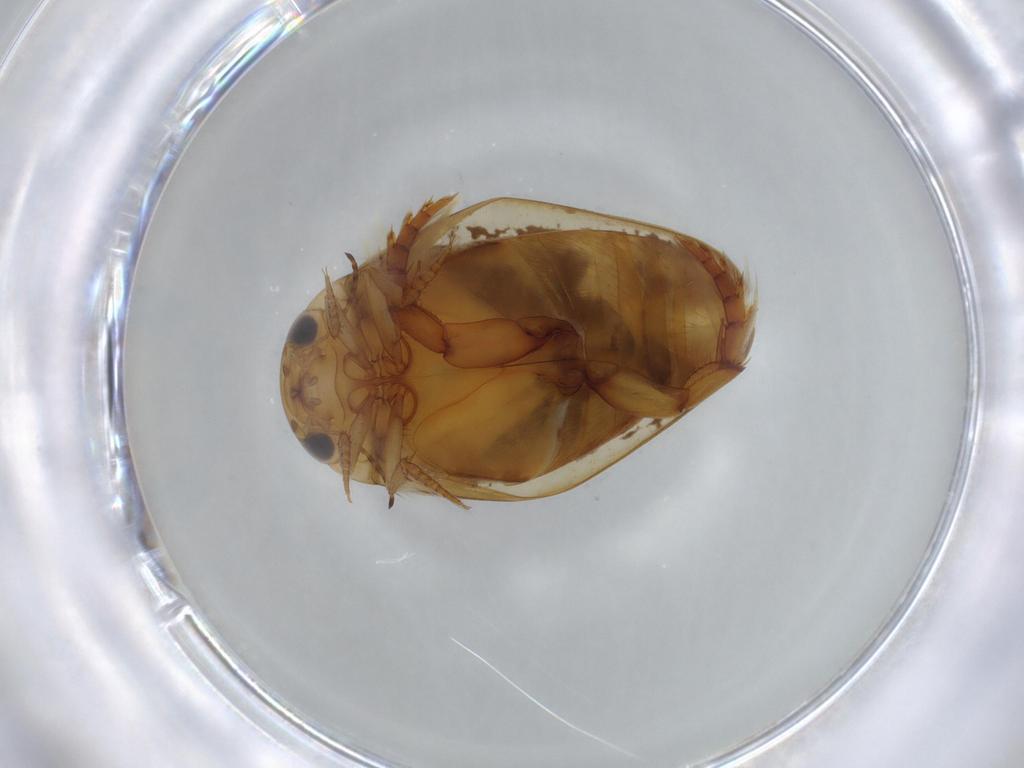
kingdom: Animalia
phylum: Arthropoda
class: Insecta
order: Coleoptera
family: Dytiscidae
